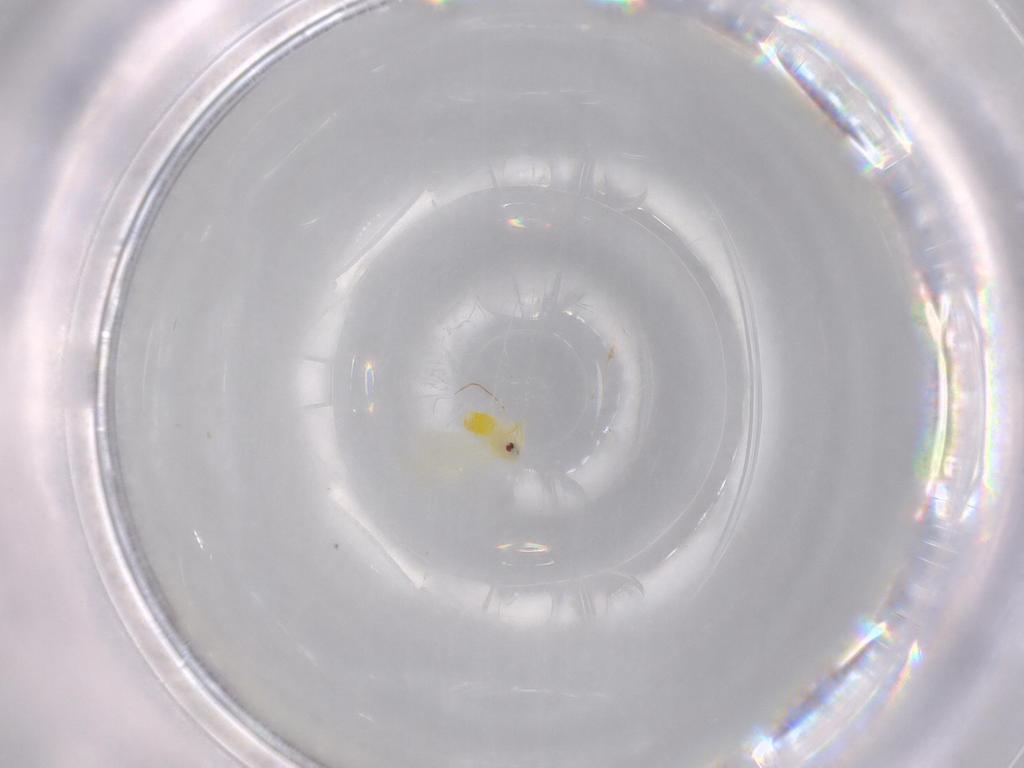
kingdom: Animalia
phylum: Arthropoda
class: Insecta
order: Hemiptera
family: Aleyrodidae
